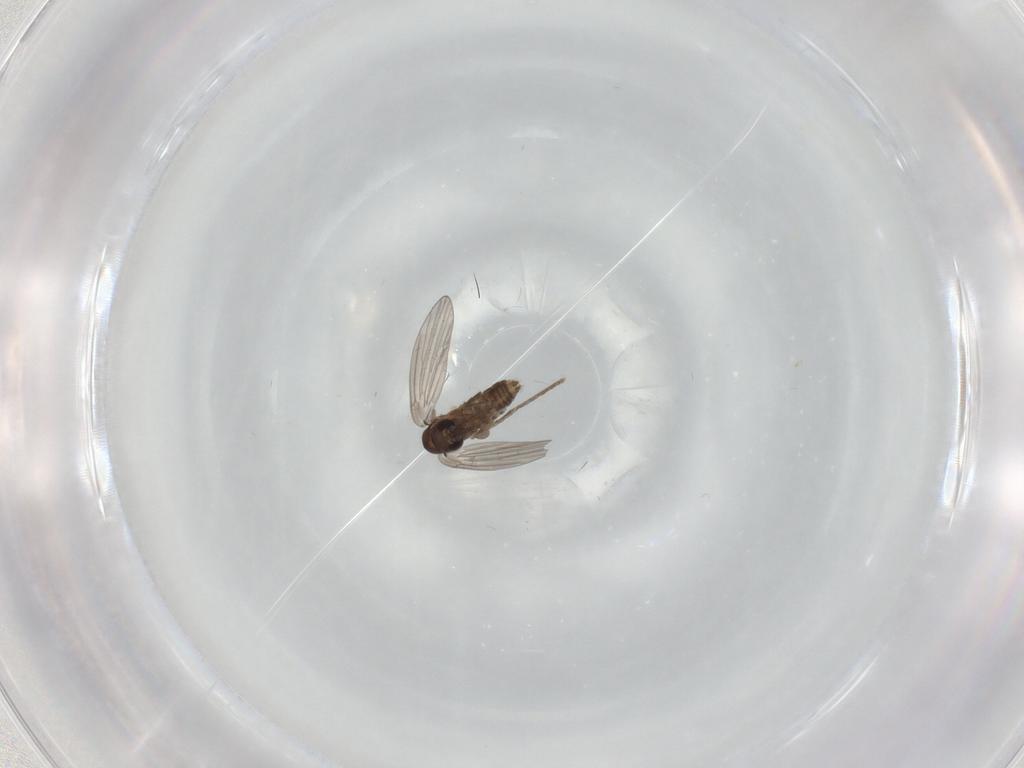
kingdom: Animalia
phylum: Arthropoda
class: Insecta
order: Diptera
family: Psychodidae
